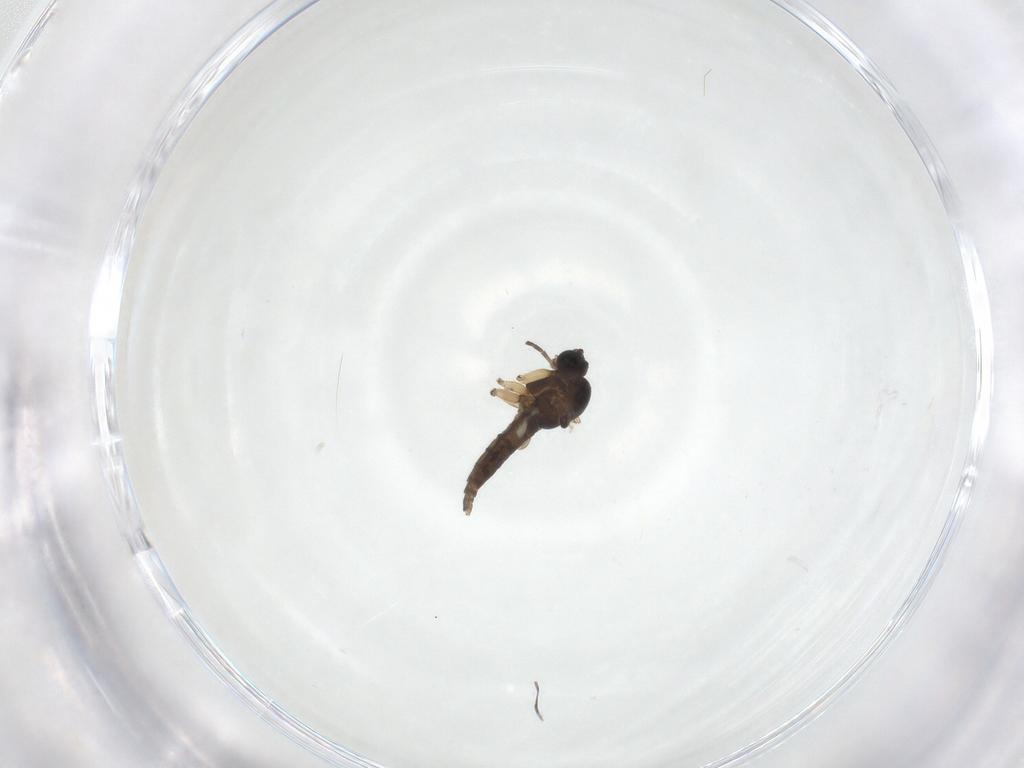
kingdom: Animalia
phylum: Arthropoda
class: Insecta
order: Diptera
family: Sciaridae
